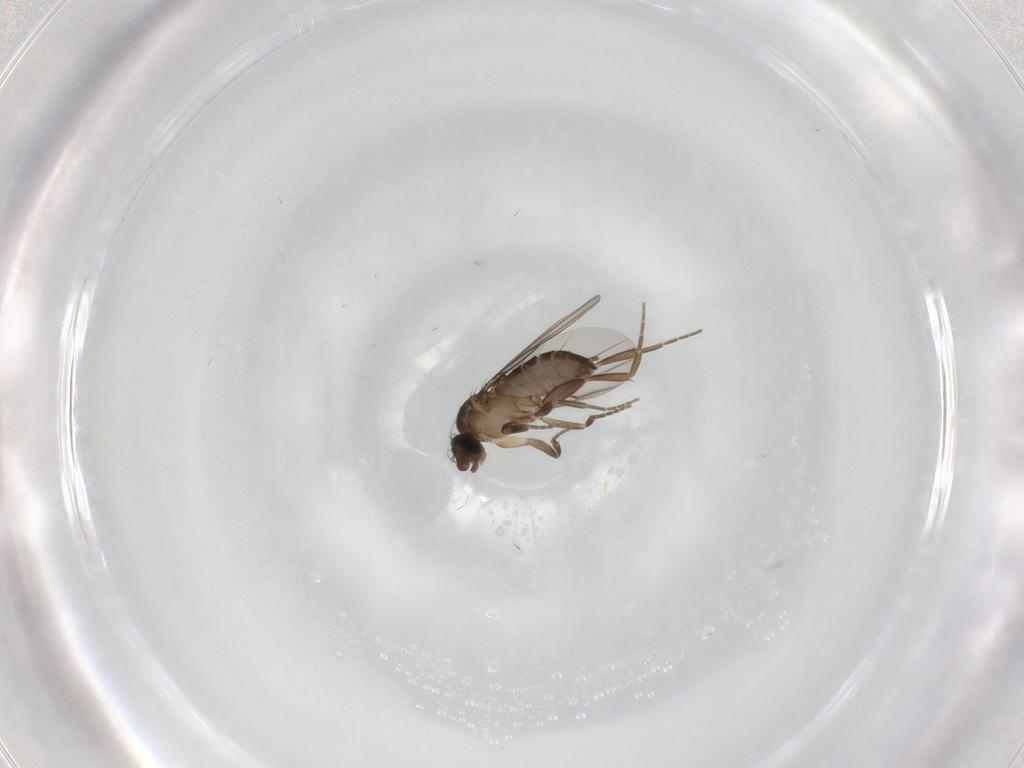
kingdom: Animalia
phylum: Arthropoda
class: Insecta
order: Diptera
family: Phoridae
